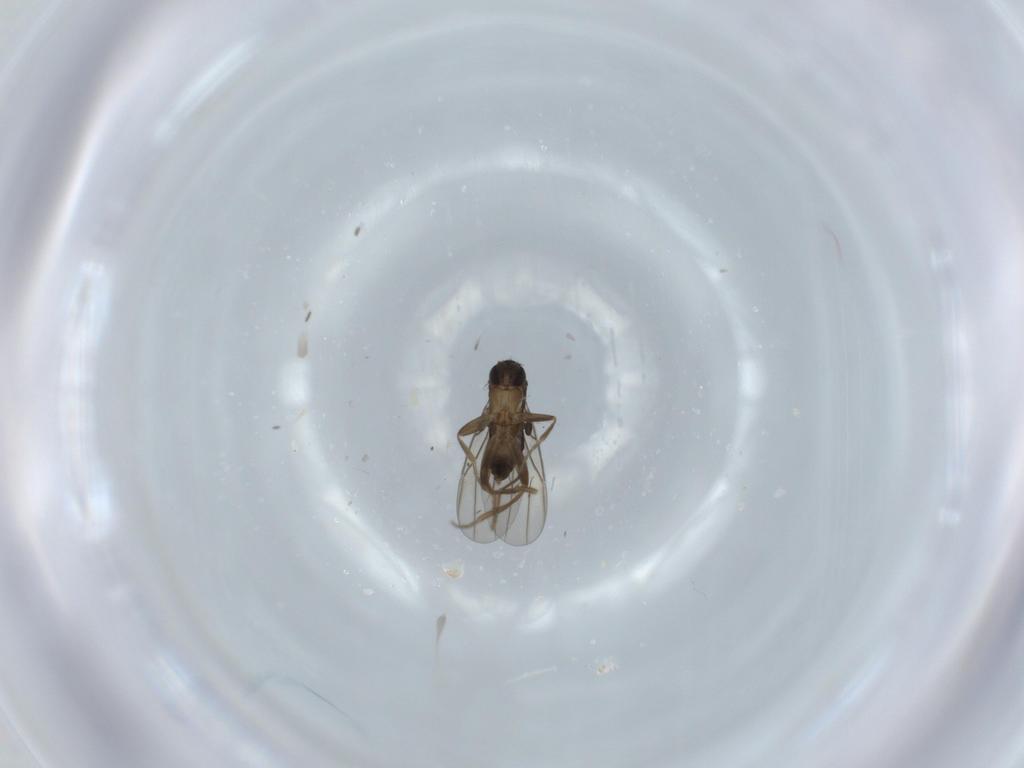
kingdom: Animalia
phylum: Arthropoda
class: Insecta
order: Diptera
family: Phoridae
